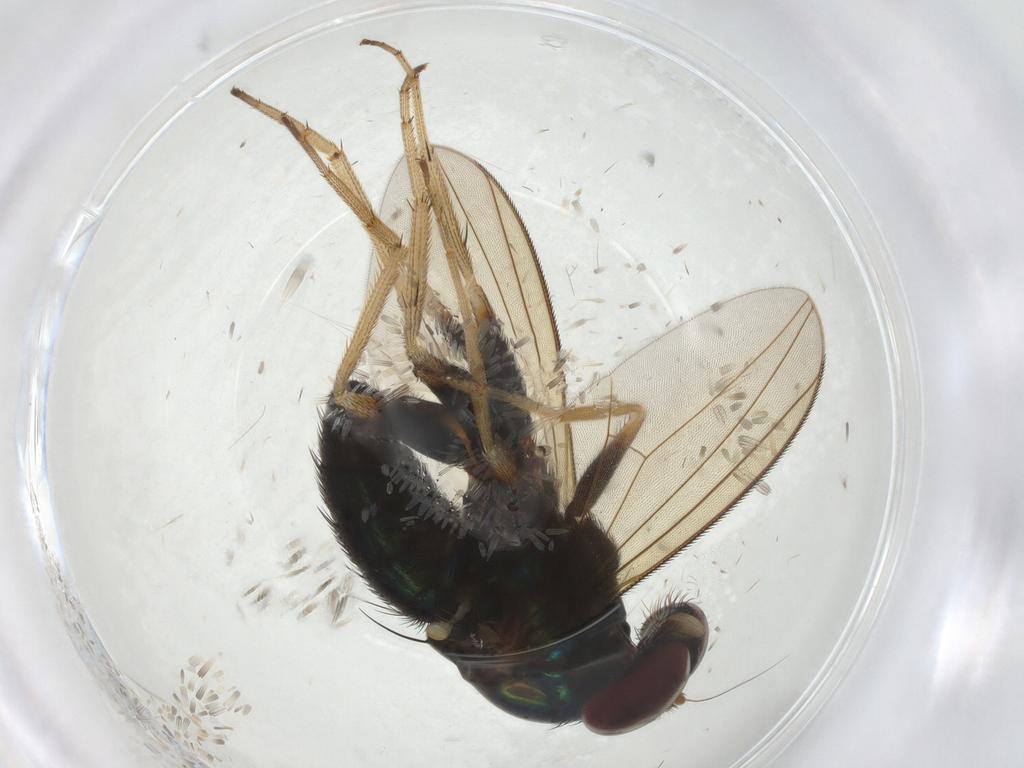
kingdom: Animalia
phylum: Arthropoda
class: Insecta
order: Diptera
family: Dolichopodidae
